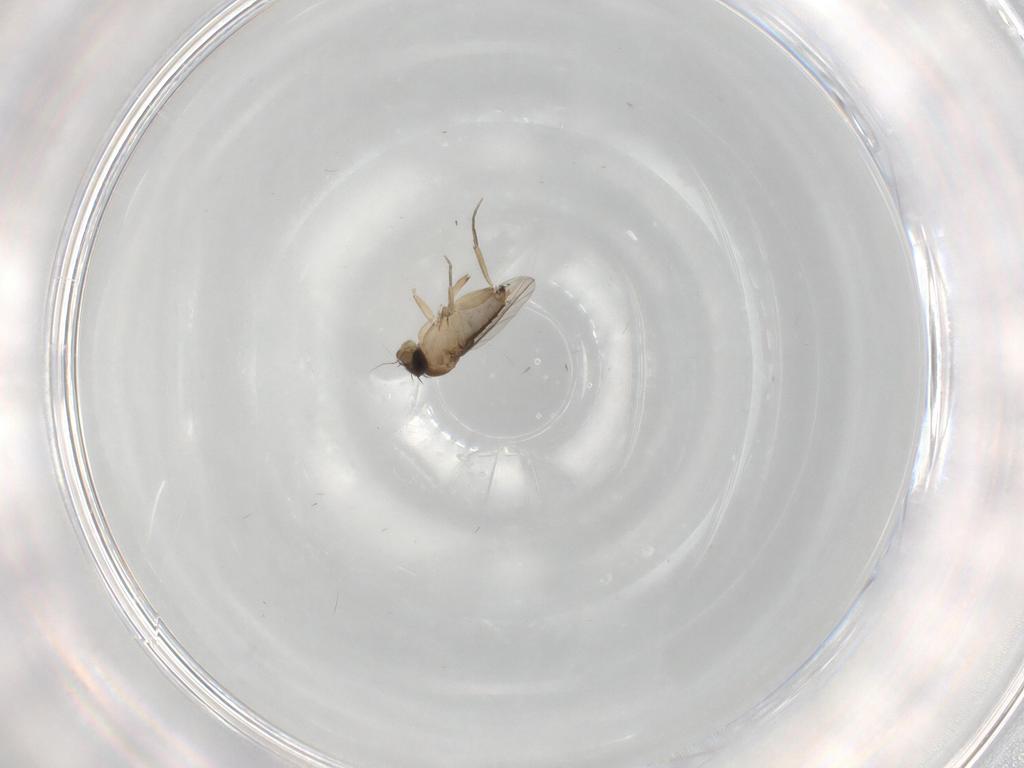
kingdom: Animalia
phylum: Arthropoda
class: Insecta
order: Diptera
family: Phoridae
